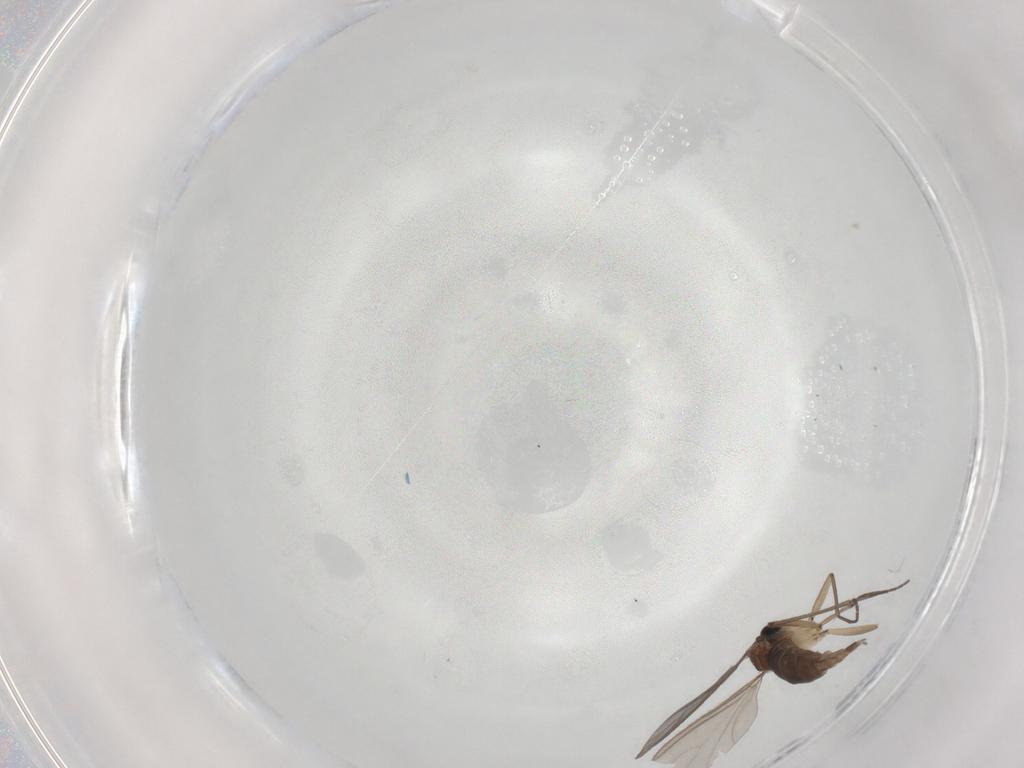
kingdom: Animalia
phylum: Arthropoda
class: Insecta
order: Diptera
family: Sciaridae
